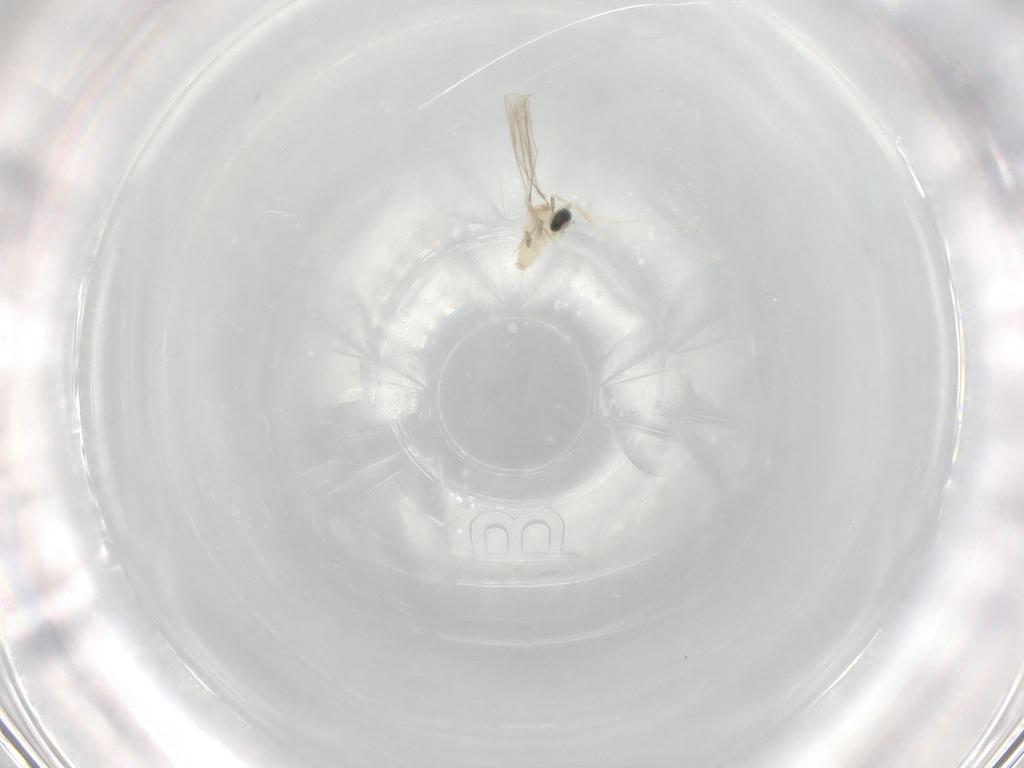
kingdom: Animalia
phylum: Arthropoda
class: Insecta
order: Diptera
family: Cecidomyiidae
